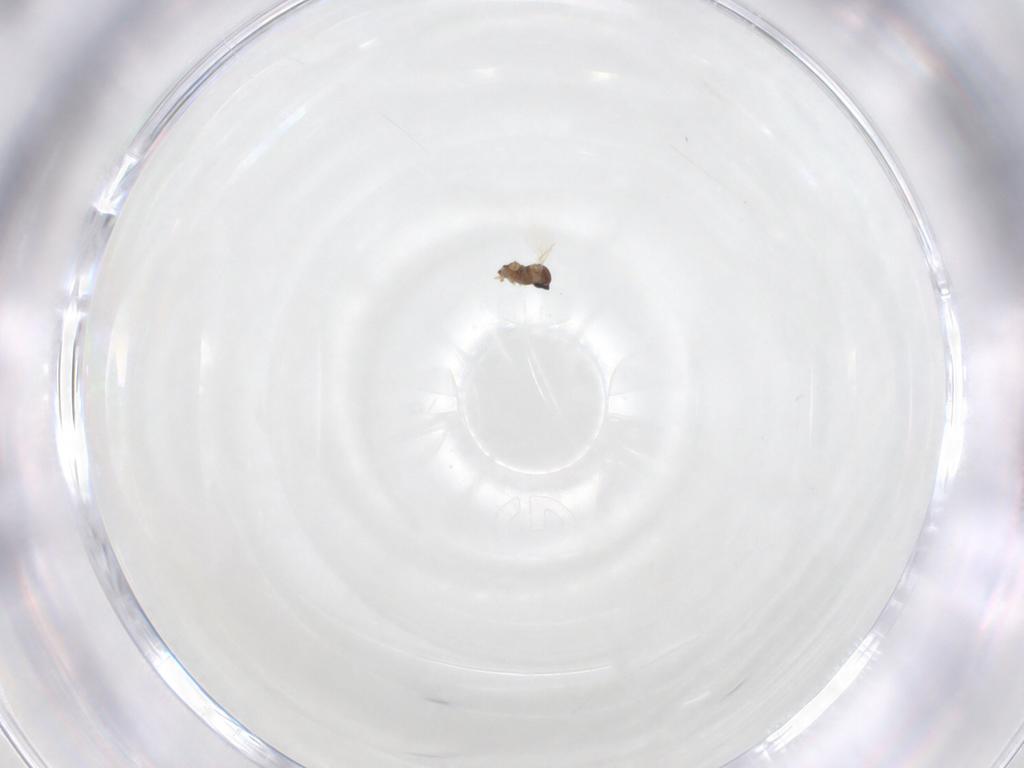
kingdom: Animalia
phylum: Arthropoda
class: Insecta
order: Diptera
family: Cecidomyiidae
